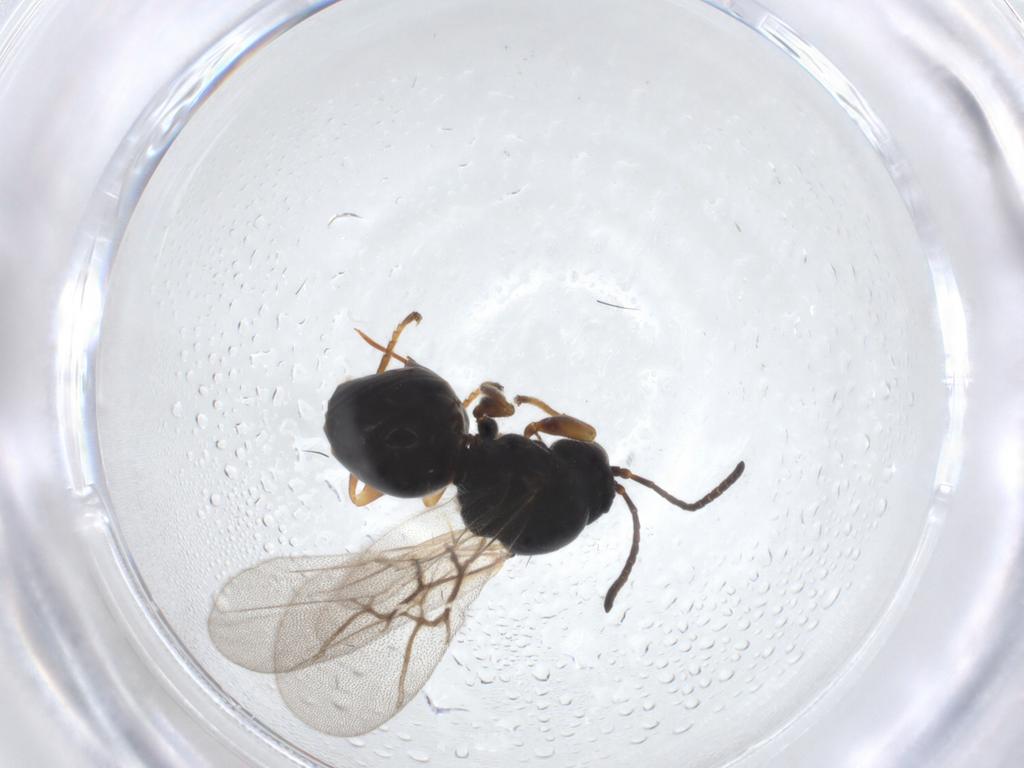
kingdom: Animalia
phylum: Arthropoda
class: Insecta
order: Hymenoptera
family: Cynipidae
